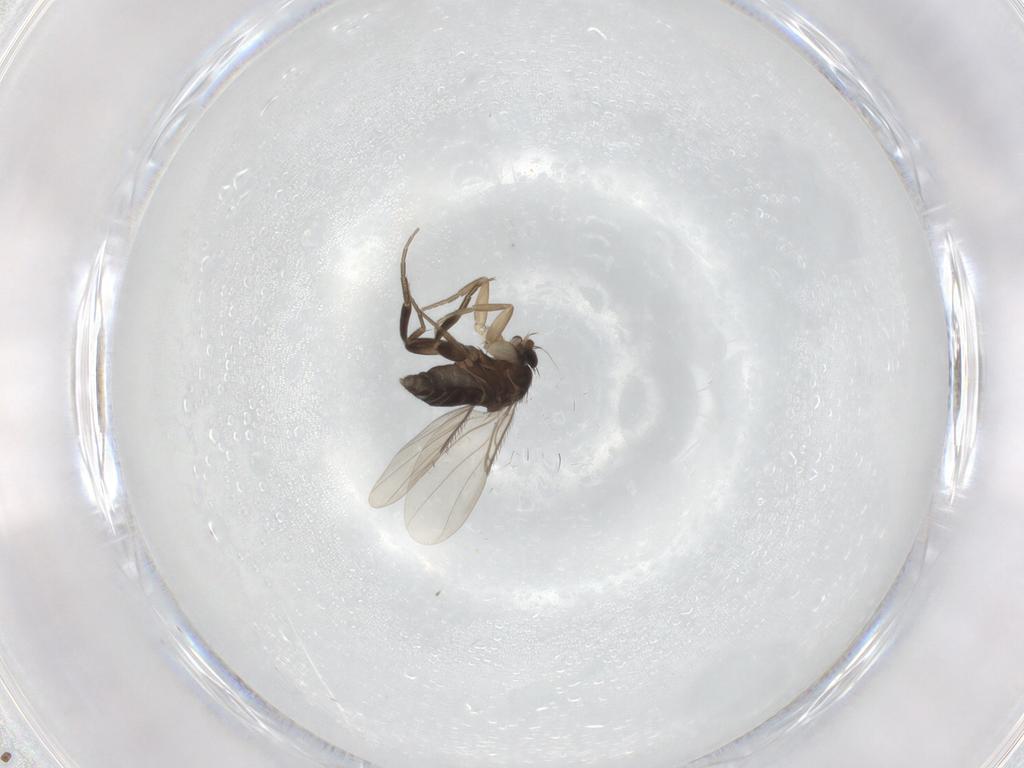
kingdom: Animalia
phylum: Arthropoda
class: Insecta
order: Diptera
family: Phoridae
